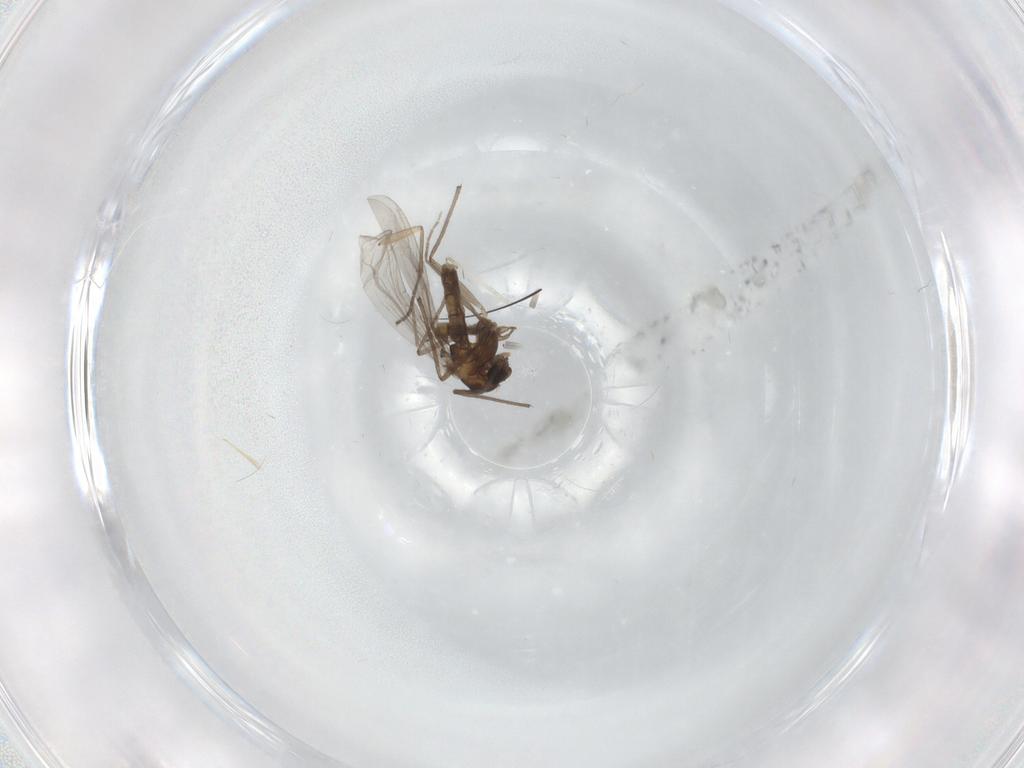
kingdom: Animalia
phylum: Arthropoda
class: Insecta
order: Diptera
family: Chironomidae
